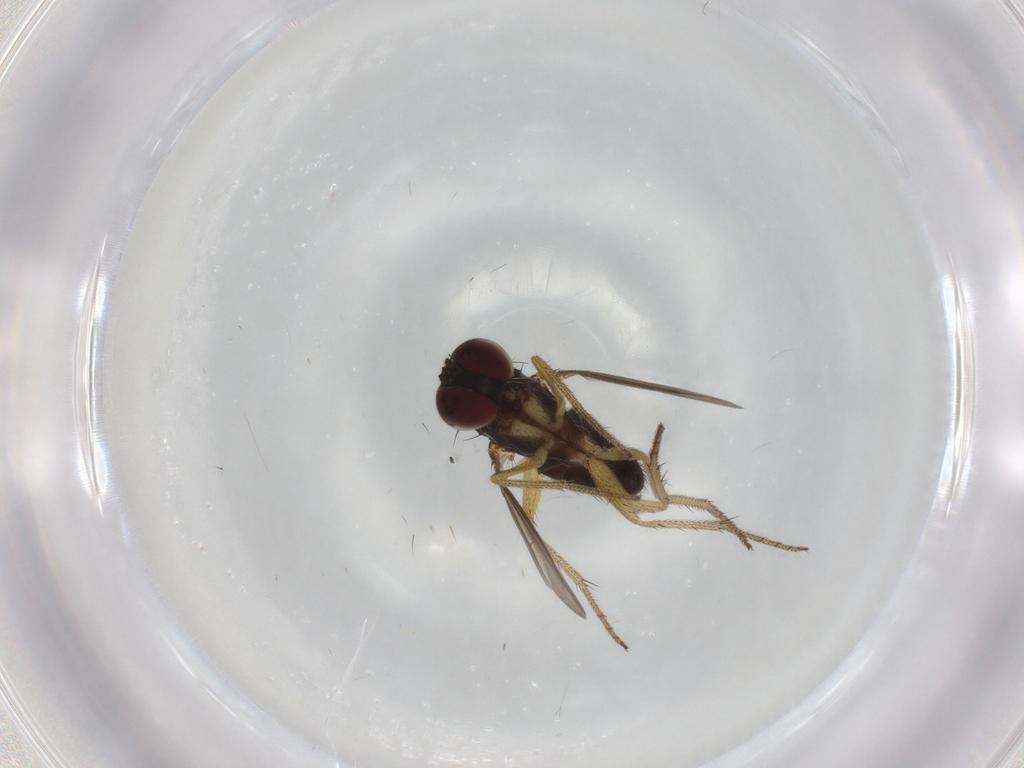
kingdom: Animalia
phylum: Arthropoda
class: Insecta
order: Diptera
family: Dolichopodidae
